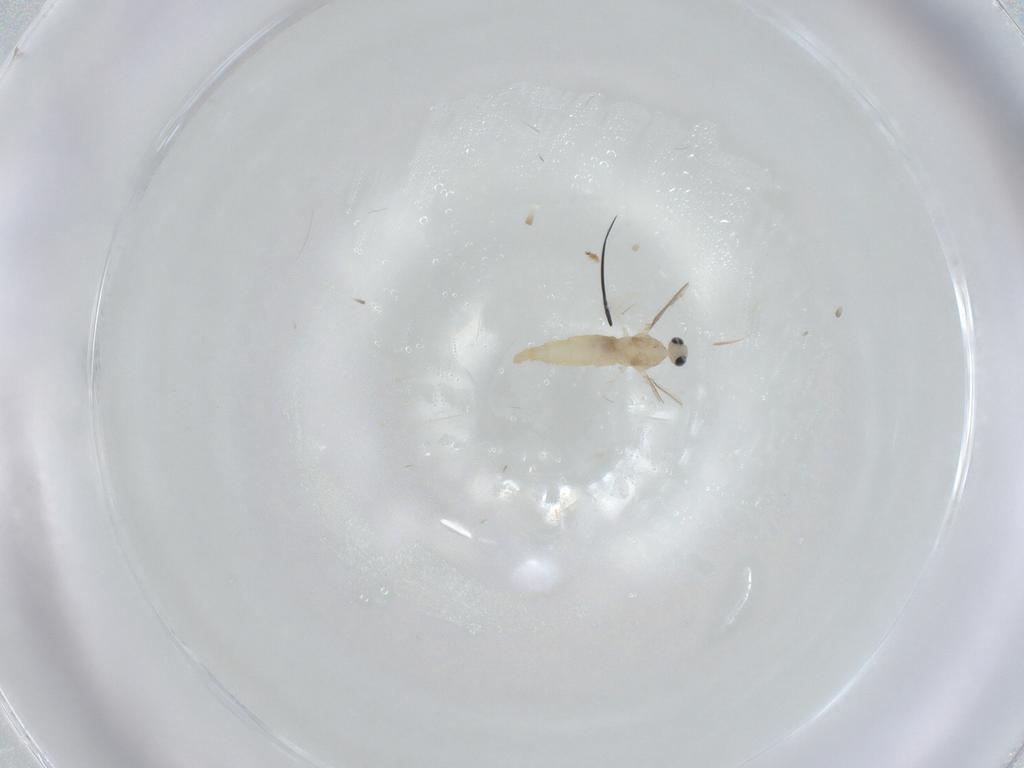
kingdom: Animalia
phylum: Arthropoda
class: Insecta
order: Diptera
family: Cecidomyiidae
